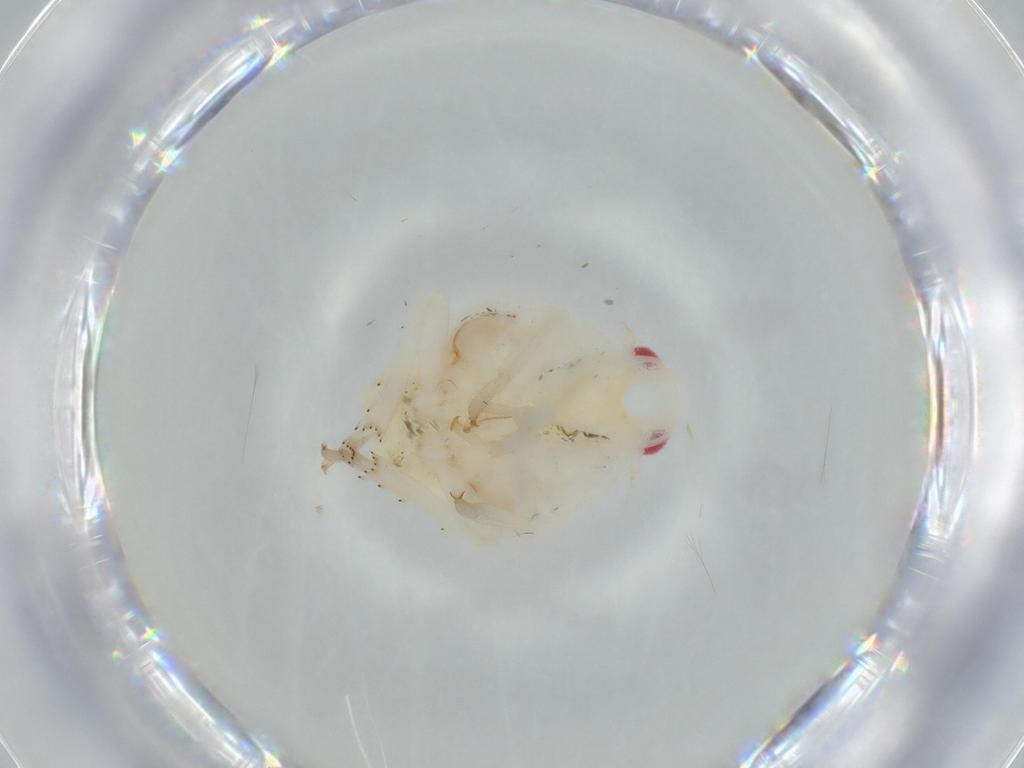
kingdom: Animalia
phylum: Arthropoda
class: Insecta
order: Hemiptera
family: Flatidae
